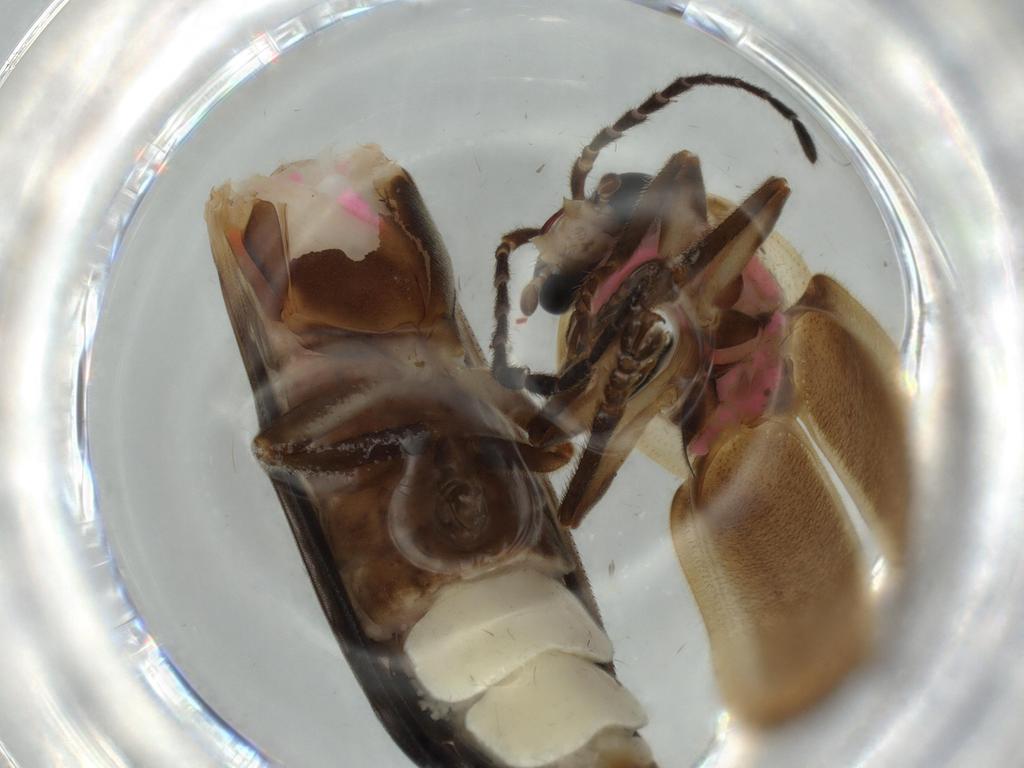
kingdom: Animalia
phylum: Arthropoda
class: Insecta
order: Coleoptera
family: Lampyridae
